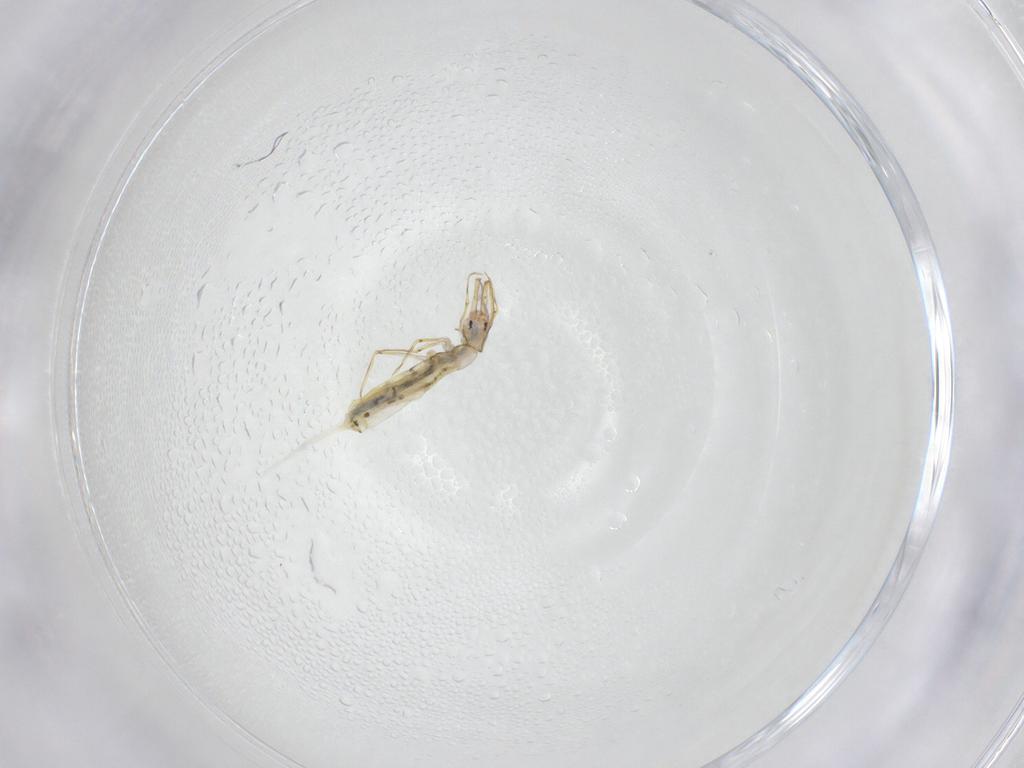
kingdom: Animalia
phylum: Arthropoda
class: Collembola
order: Entomobryomorpha
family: Entomobryidae
